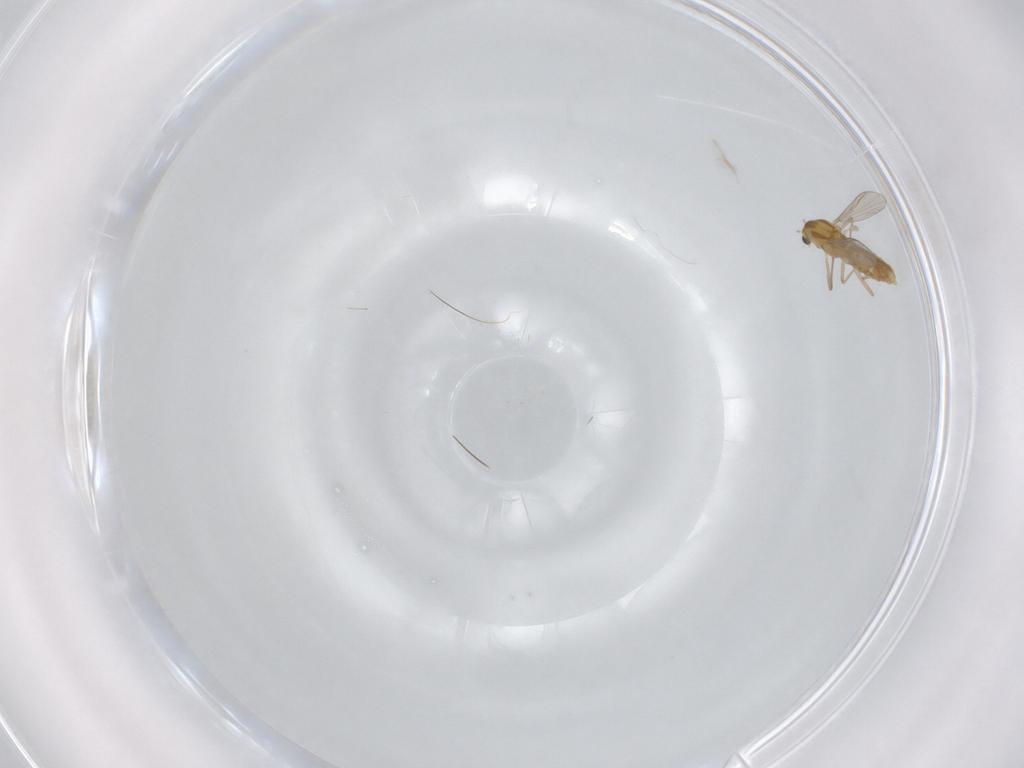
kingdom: Animalia
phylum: Arthropoda
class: Insecta
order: Diptera
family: Chironomidae
